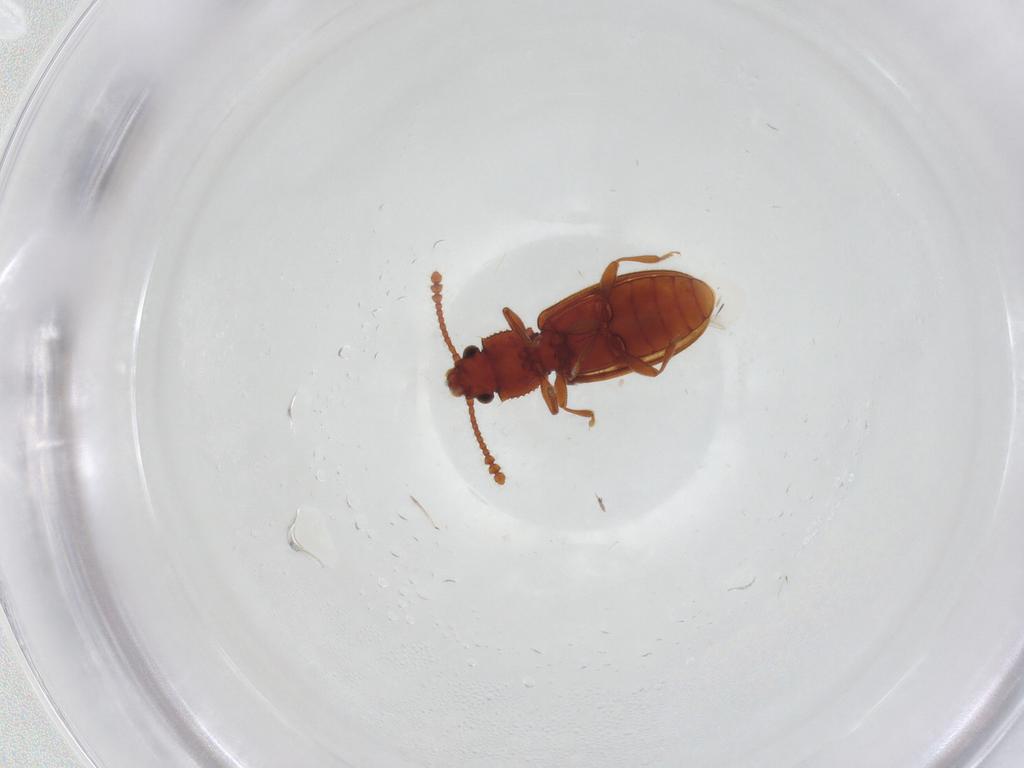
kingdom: Animalia
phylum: Arthropoda
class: Insecta
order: Coleoptera
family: Silvanidae
